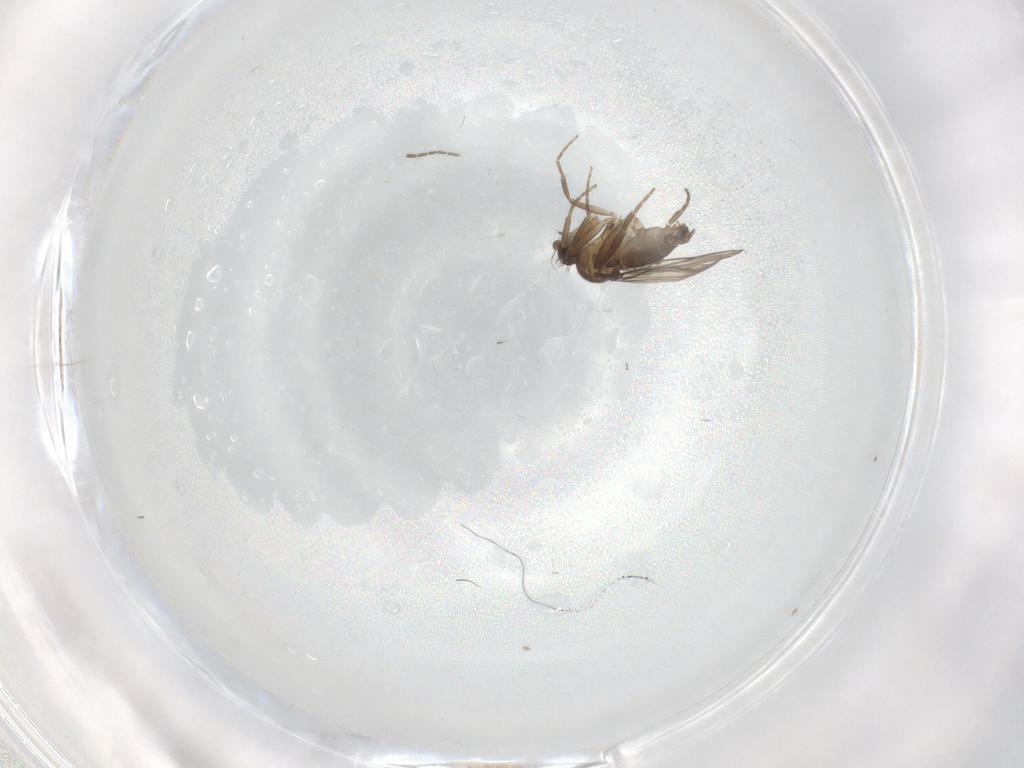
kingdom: Animalia
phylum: Arthropoda
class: Insecta
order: Diptera
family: Phoridae
